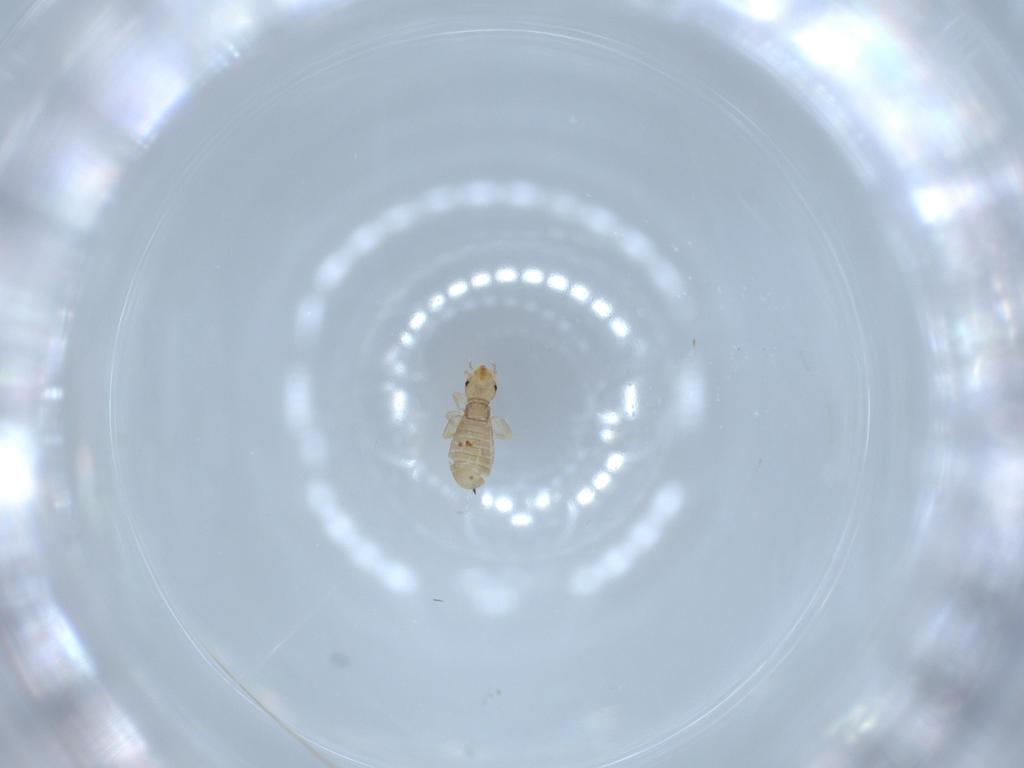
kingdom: Animalia
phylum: Arthropoda
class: Insecta
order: Psocodea
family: Liposcelididae
